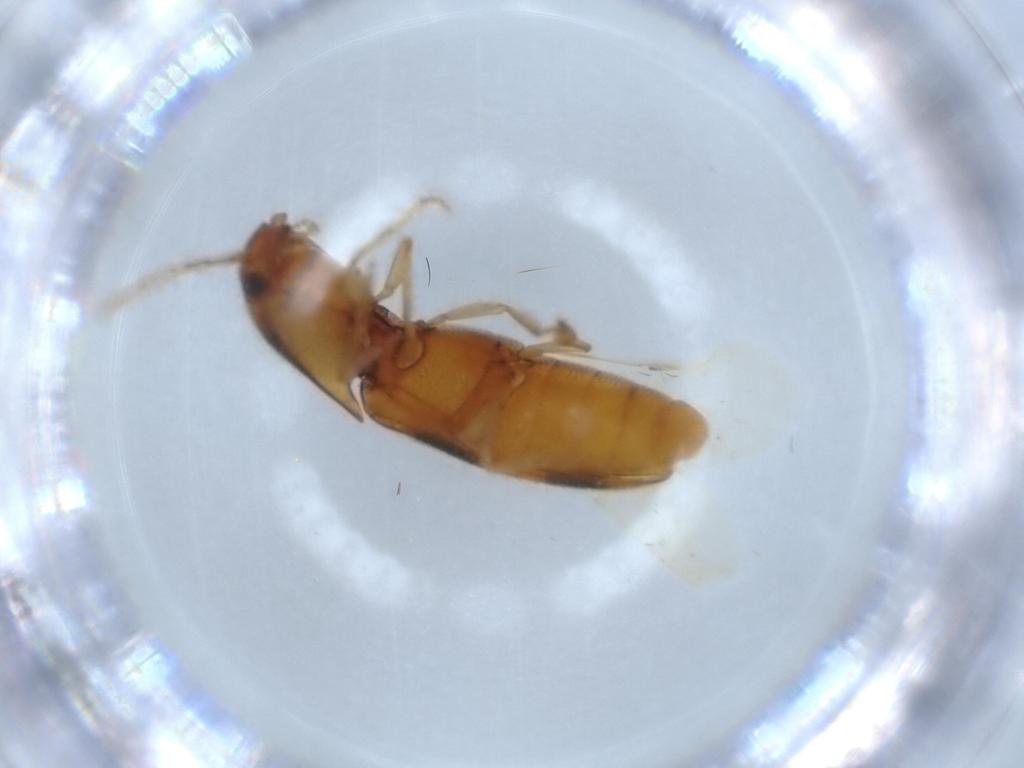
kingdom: Animalia
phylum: Arthropoda
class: Insecta
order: Coleoptera
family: Elateridae
